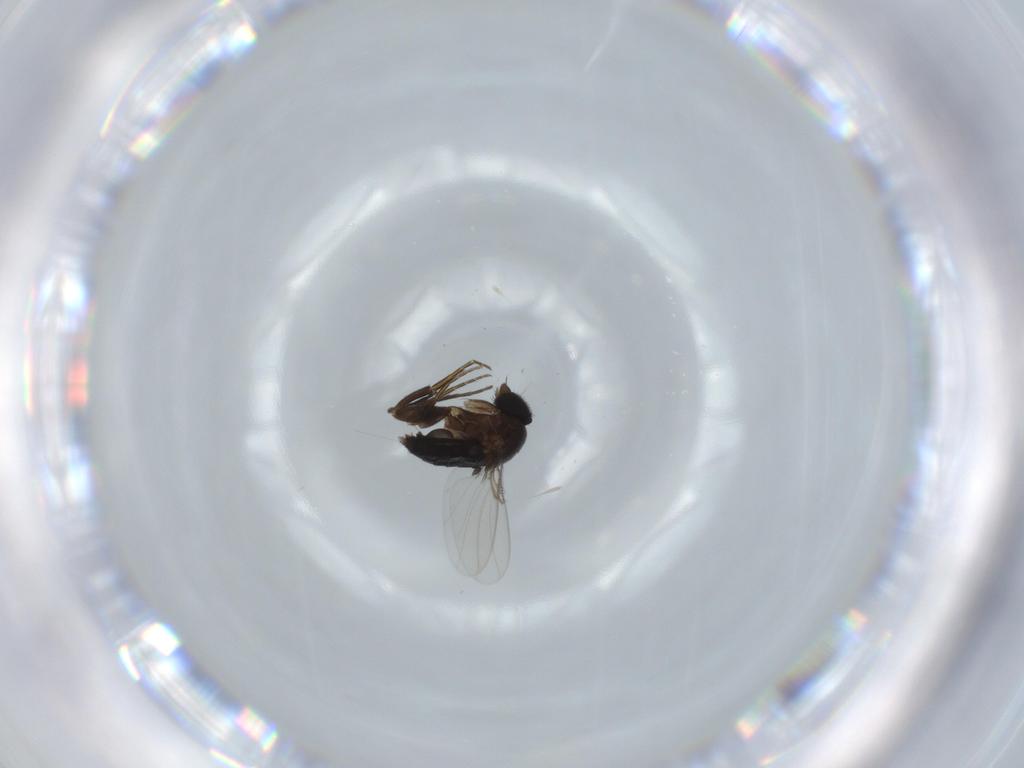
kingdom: Animalia
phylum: Arthropoda
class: Insecta
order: Diptera
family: Phoridae
